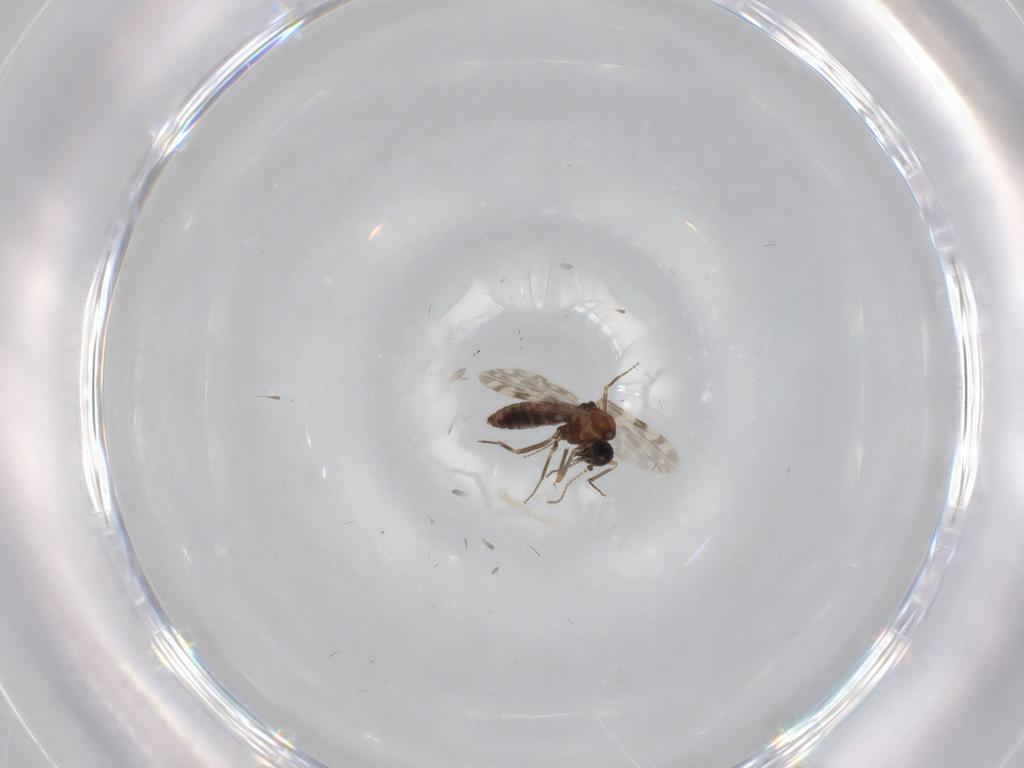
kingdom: Animalia
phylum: Arthropoda
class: Insecta
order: Diptera
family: Ceratopogonidae
